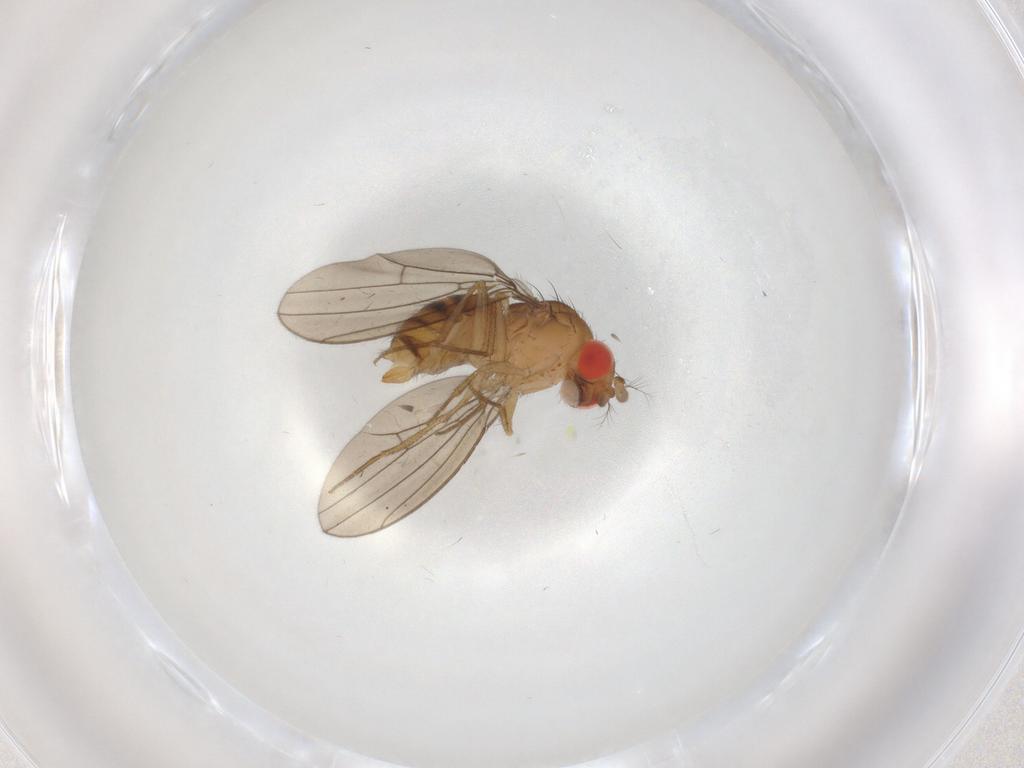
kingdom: Animalia
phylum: Arthropoda
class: Insecta
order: Diptera
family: Drosophilidae
